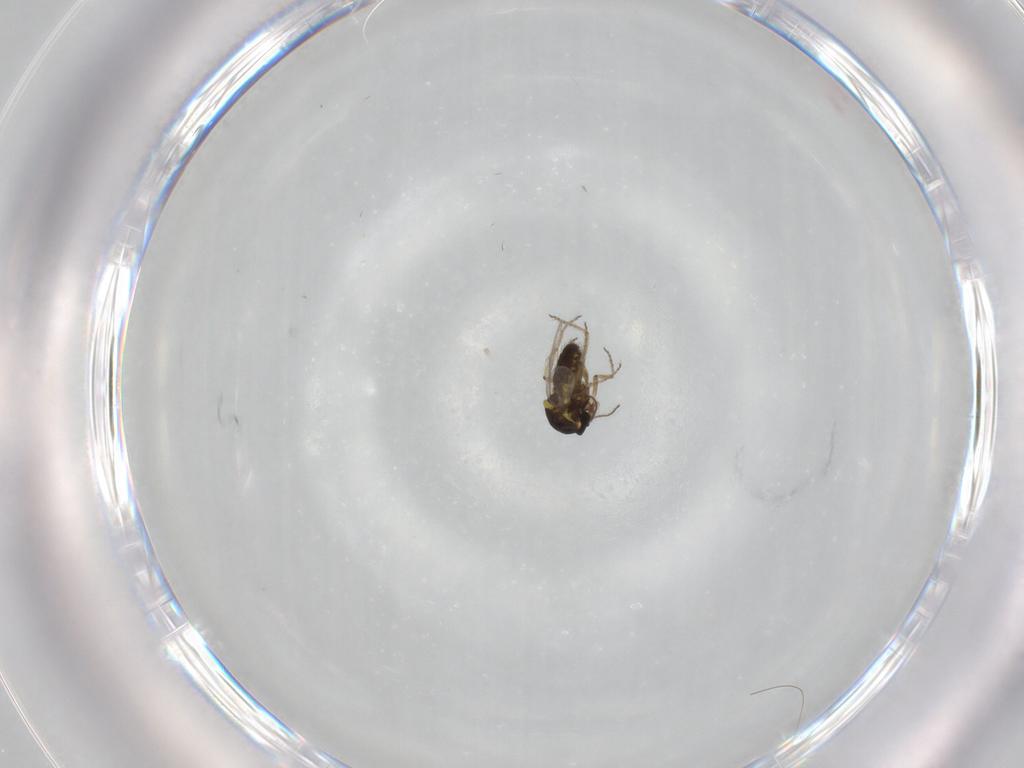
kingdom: Animalia
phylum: Arthropoda
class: Insecta
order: Diptera
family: Ceratopogonidae
